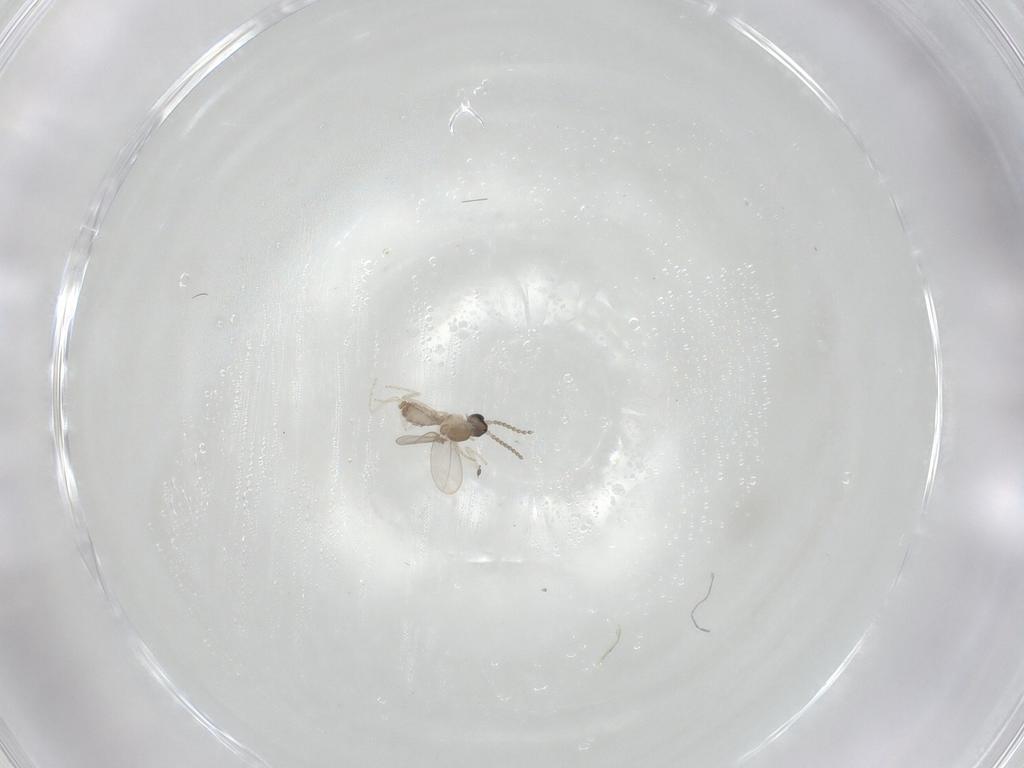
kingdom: Animalia
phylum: Arthropoda
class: Insecta
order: Diptera
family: Cecidomyiidae
